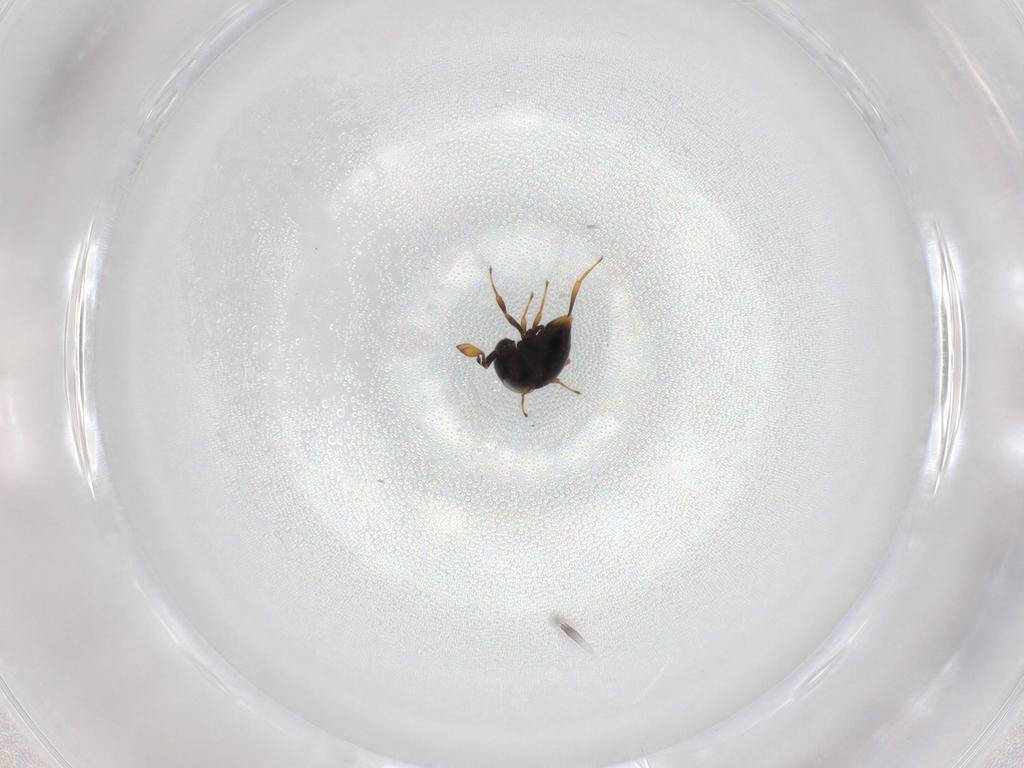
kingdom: Animalia
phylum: Arthropoda
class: Insecta
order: Hymenoptera
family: Scelionidae
